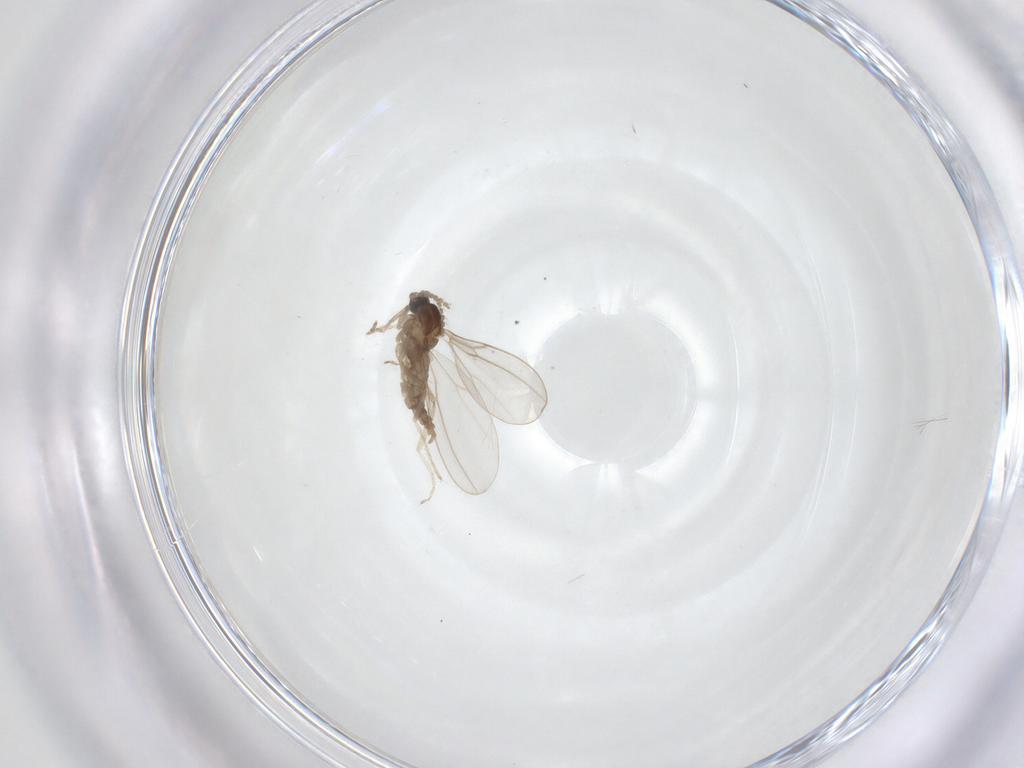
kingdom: Animalia
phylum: Arthropoda
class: Insecta
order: Diptera
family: Cecidomyiidae
